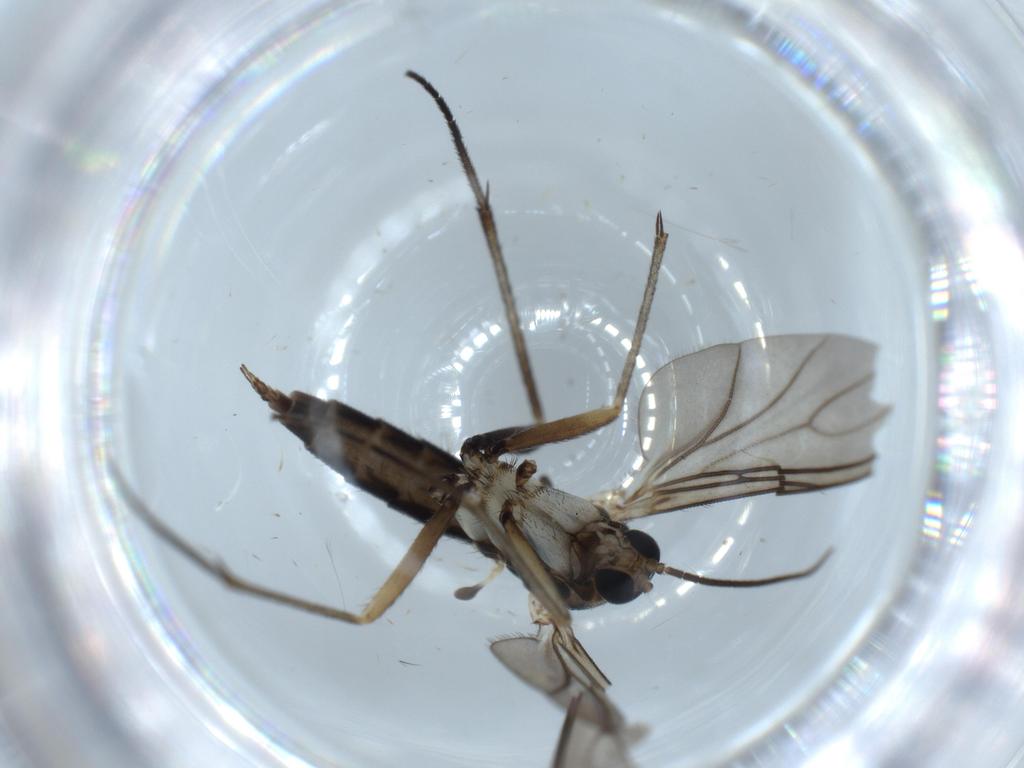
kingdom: Animalia
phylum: Arthropoda
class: Insecta
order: Diptera
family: Sciaridae
